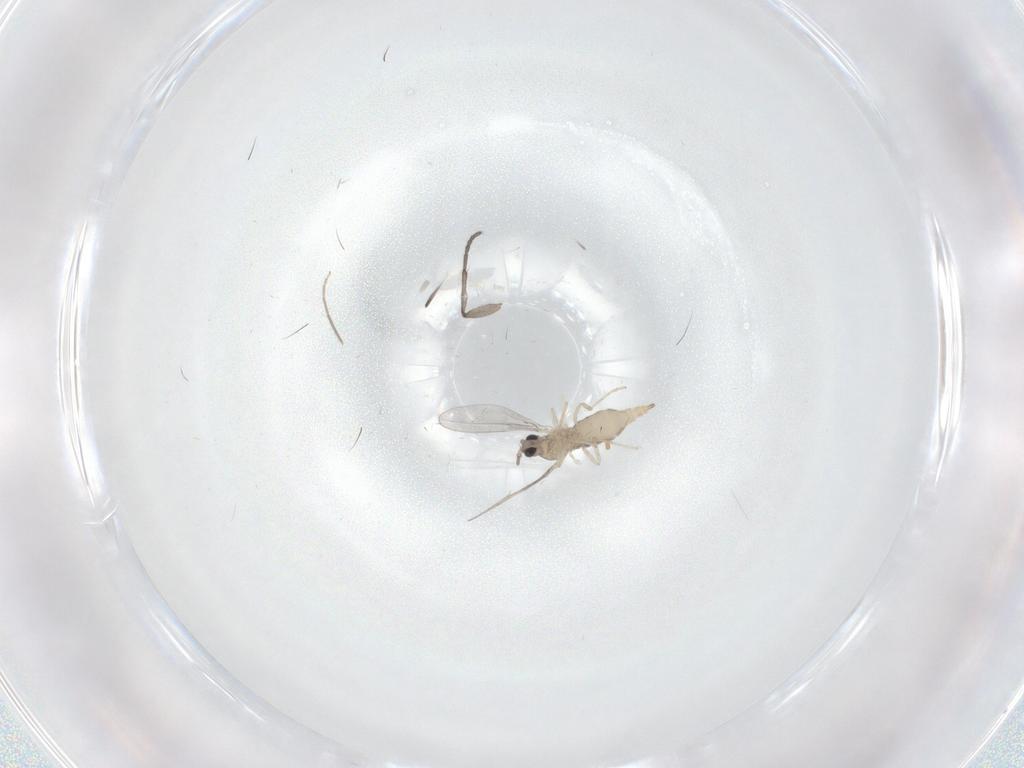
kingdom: Animalia
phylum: Arthropoda
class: Insecta
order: Diptera
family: Cecidomyiidae
